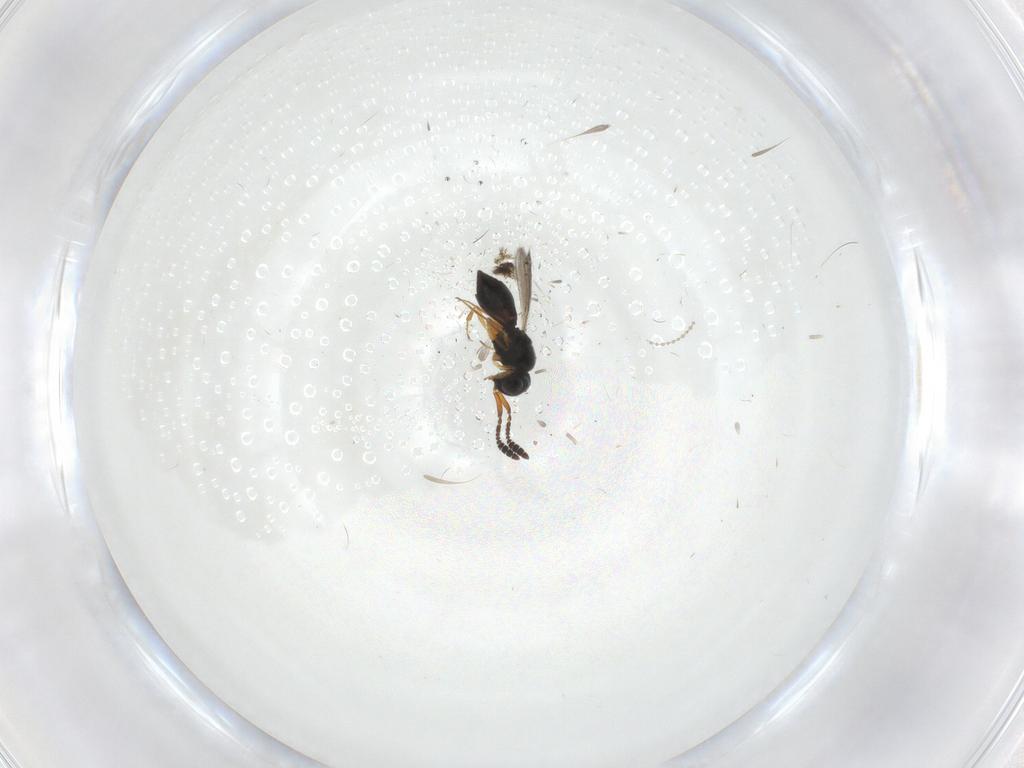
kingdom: Animalia
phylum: Arthropoda
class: Insecta
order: Hymenoptera
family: Scelionidae
